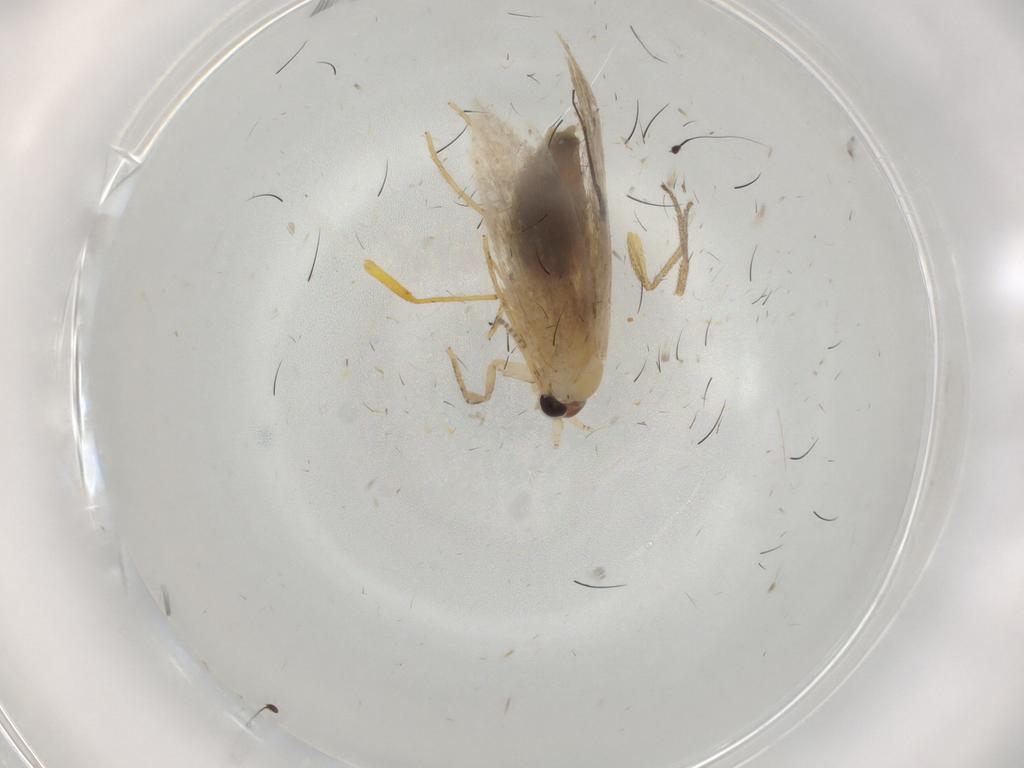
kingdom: Animalia
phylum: Arthropoda
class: Insecta
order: Lepidoptera
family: Nepticulidae
